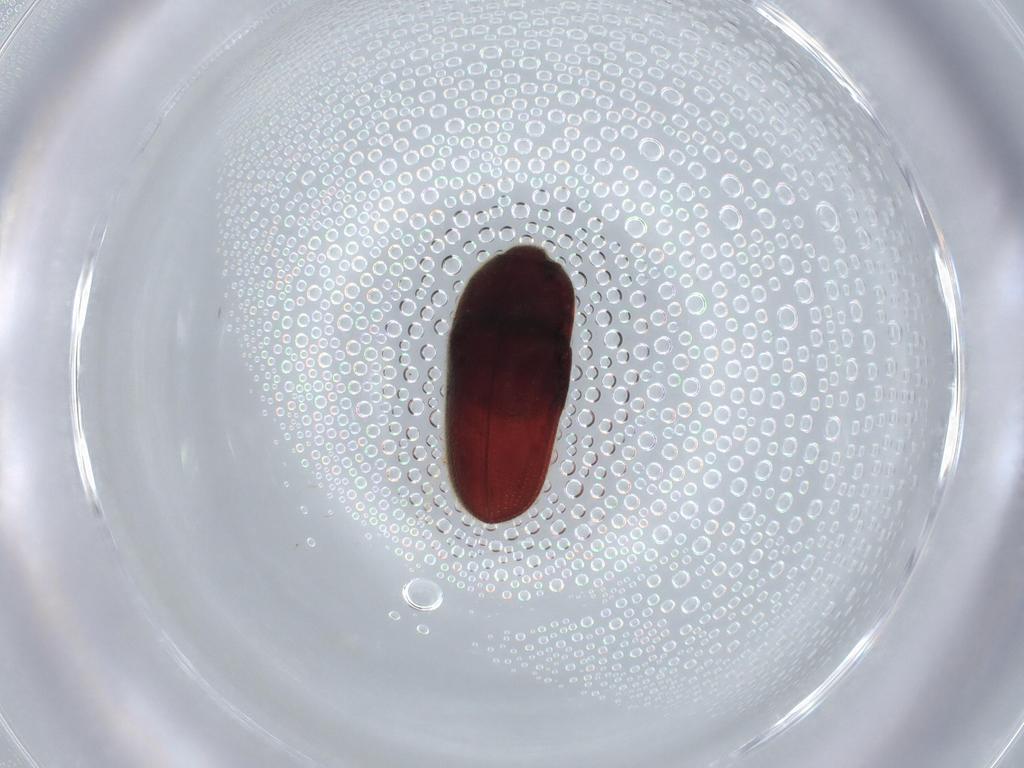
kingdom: Animalia
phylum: Arthropoda
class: Insecta
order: Coleoptera
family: Throscidae
